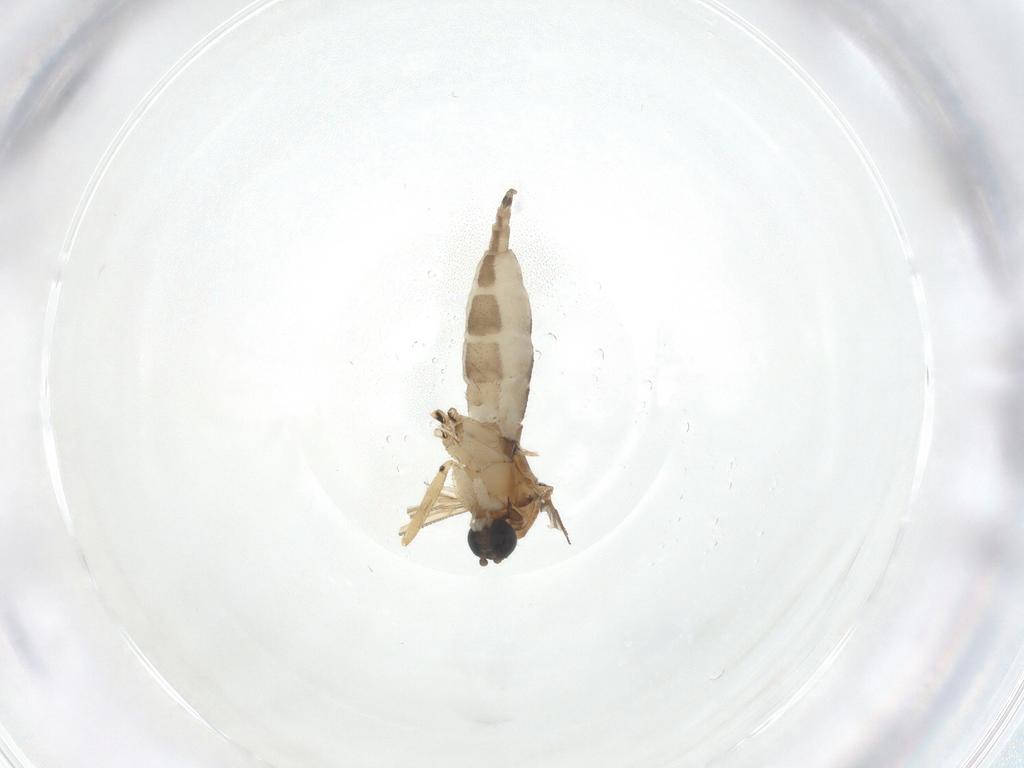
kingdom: Animalia
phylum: Arthropoda
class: Insecta
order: Diptera
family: Sciaridae
